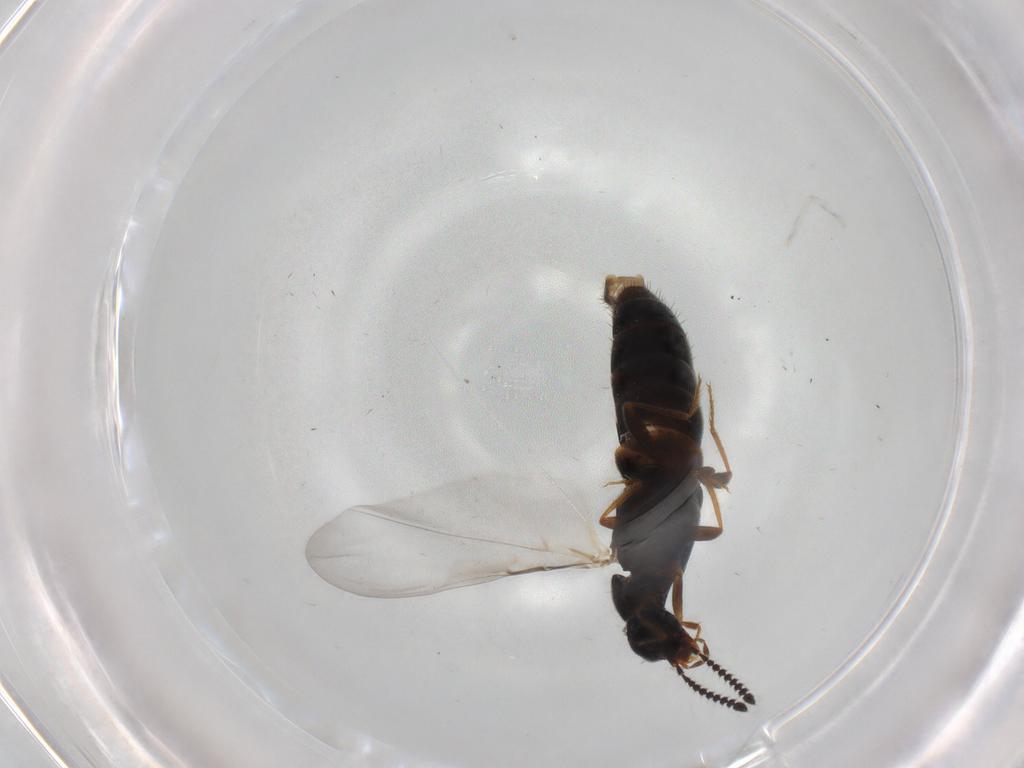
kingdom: Animalia
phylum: Arthropoda
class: Insecta
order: Coleoptera
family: Staphylinidae
